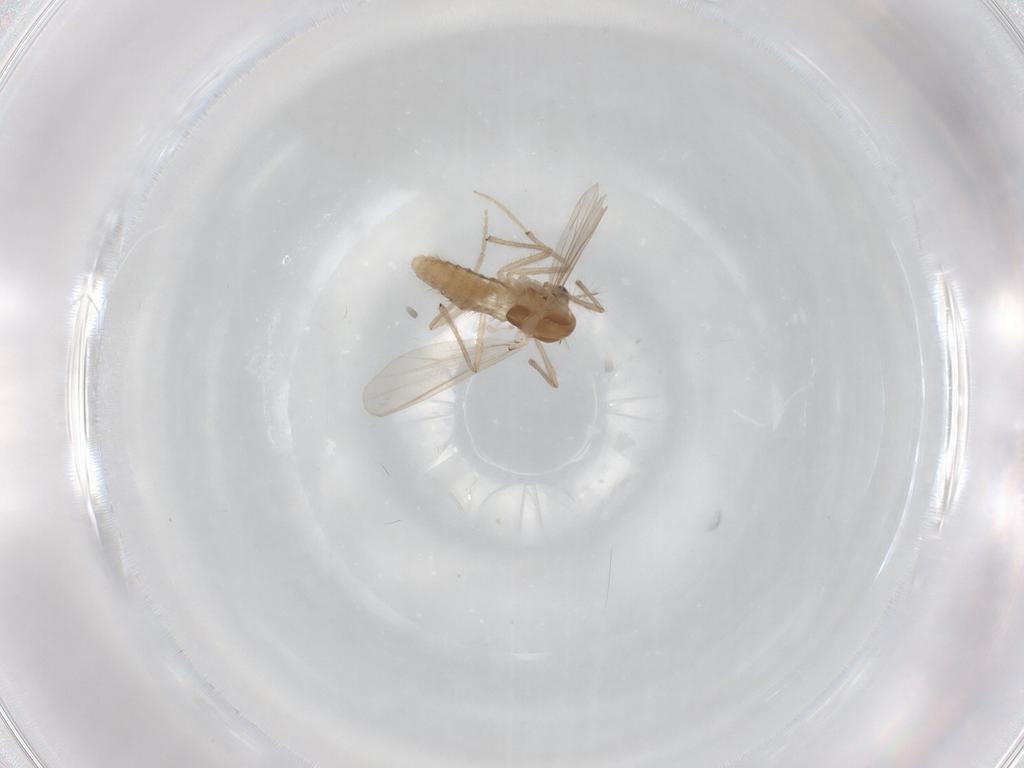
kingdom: Animalia
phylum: Arthropoda
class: Insecta
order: Diptera
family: Chironomidae
